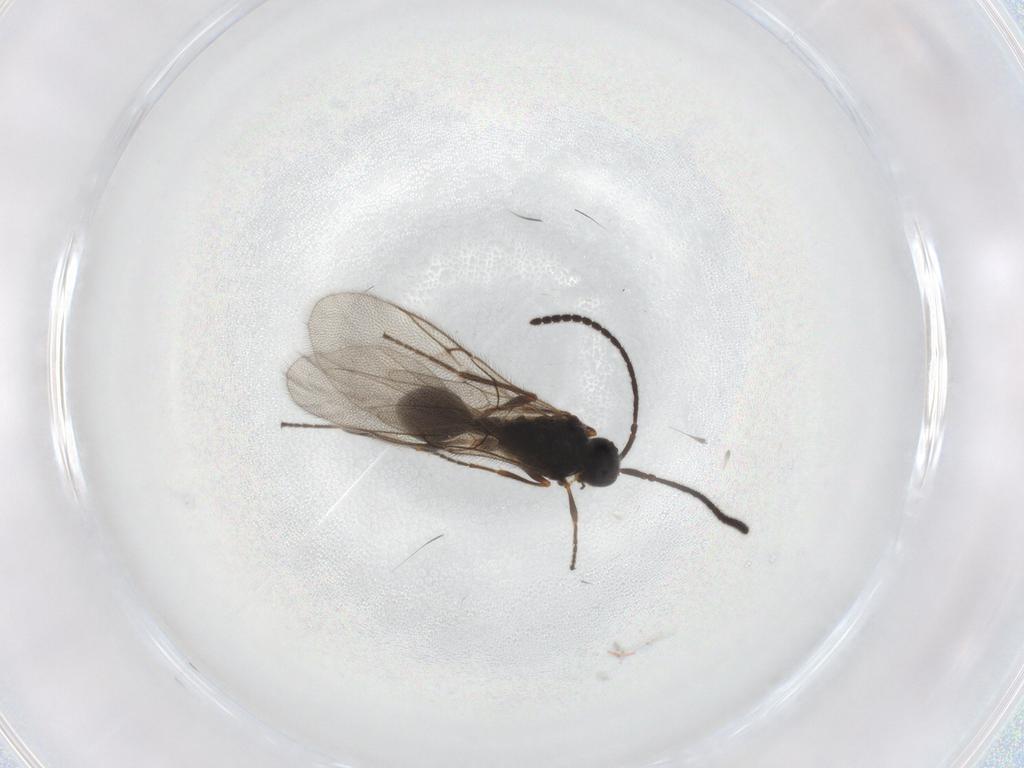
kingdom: Animalia
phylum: Arthropoda
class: Insecta
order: Hymenoptera
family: Diapriidae
